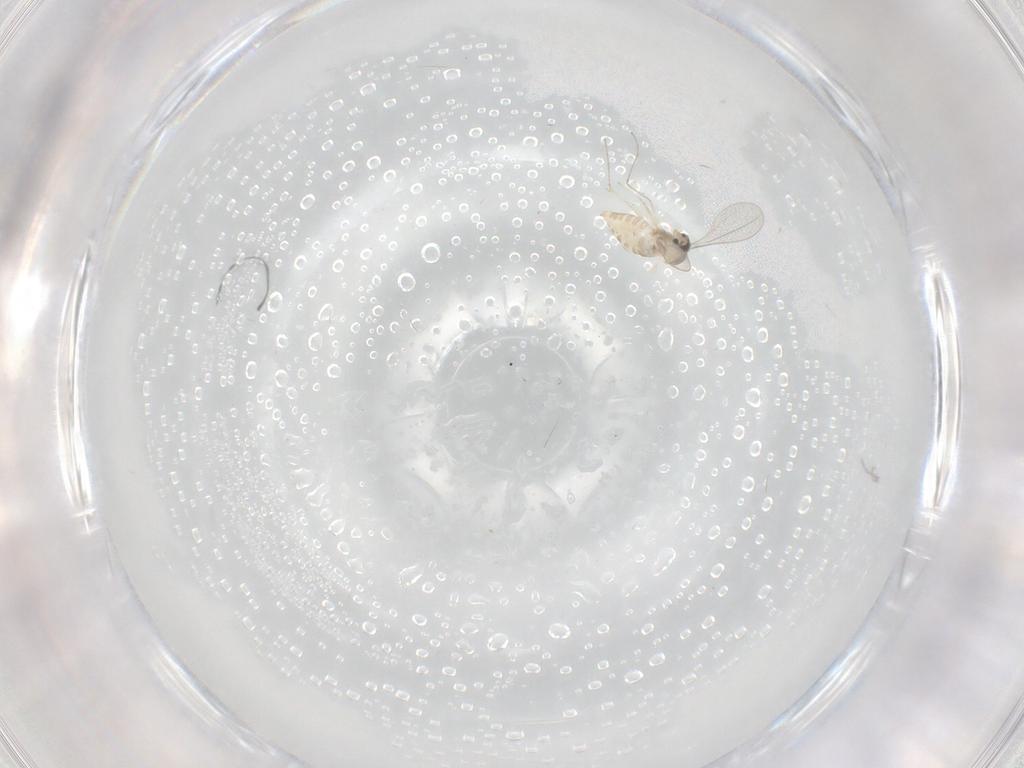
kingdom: Animalia
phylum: Arthropoda
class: Insecta
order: Diptera
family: Cecidomyiidae
